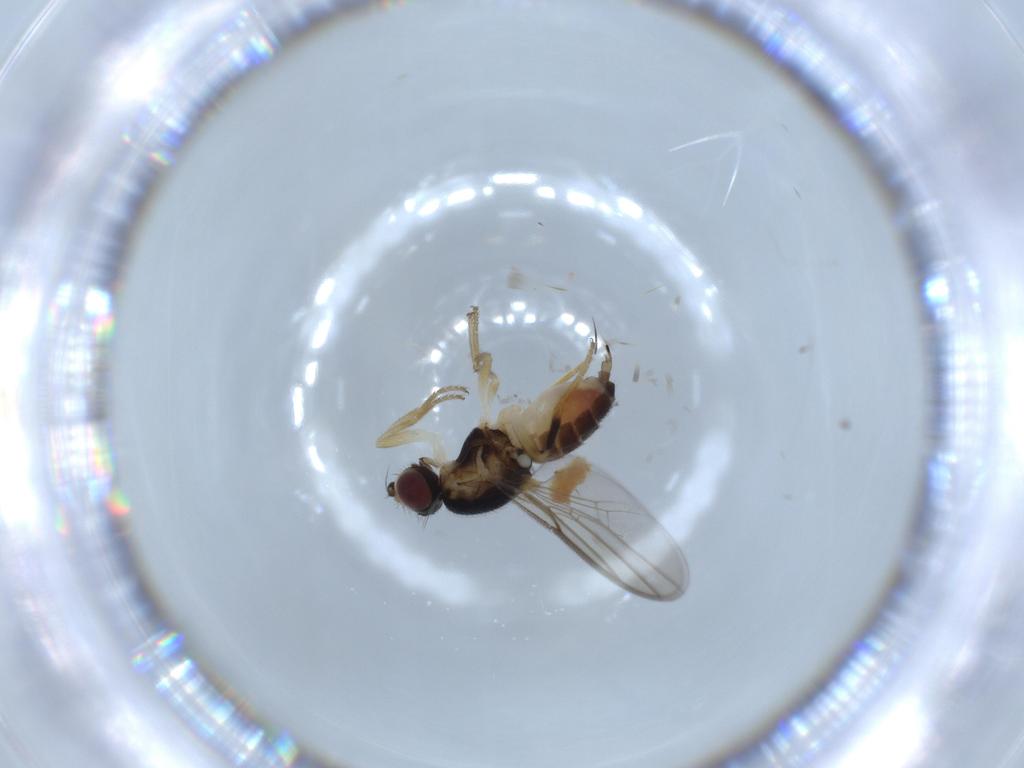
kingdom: Animalia
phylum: Arthropoda
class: Insecta
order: Diptera
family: Chloropidae
